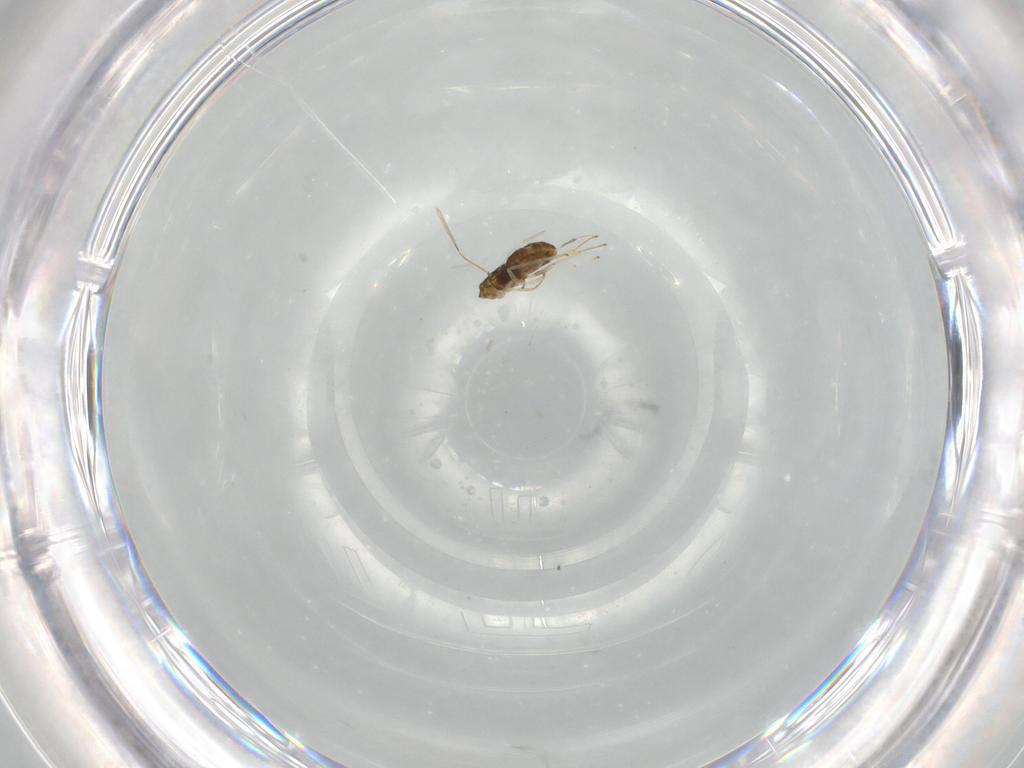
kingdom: Animalia
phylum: Arthropoda
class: Insecta
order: Hymenoptera
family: Encyrtidae
